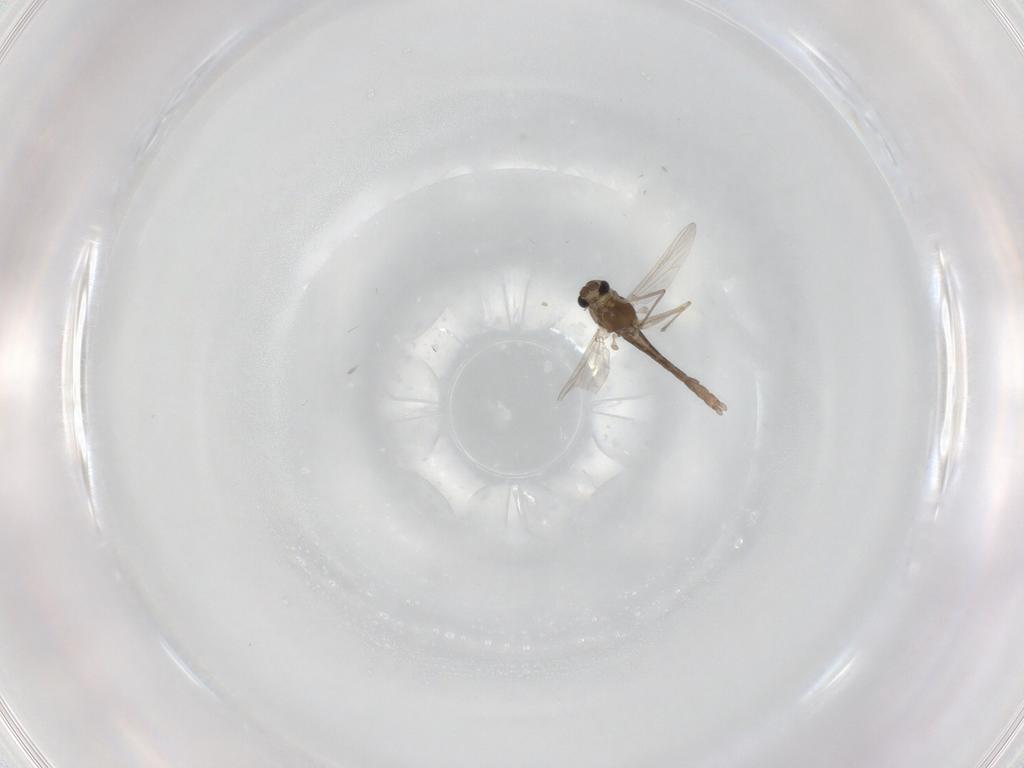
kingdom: Animalia
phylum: Arthropoda
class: Insecta
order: Diptera
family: Chironomidae
